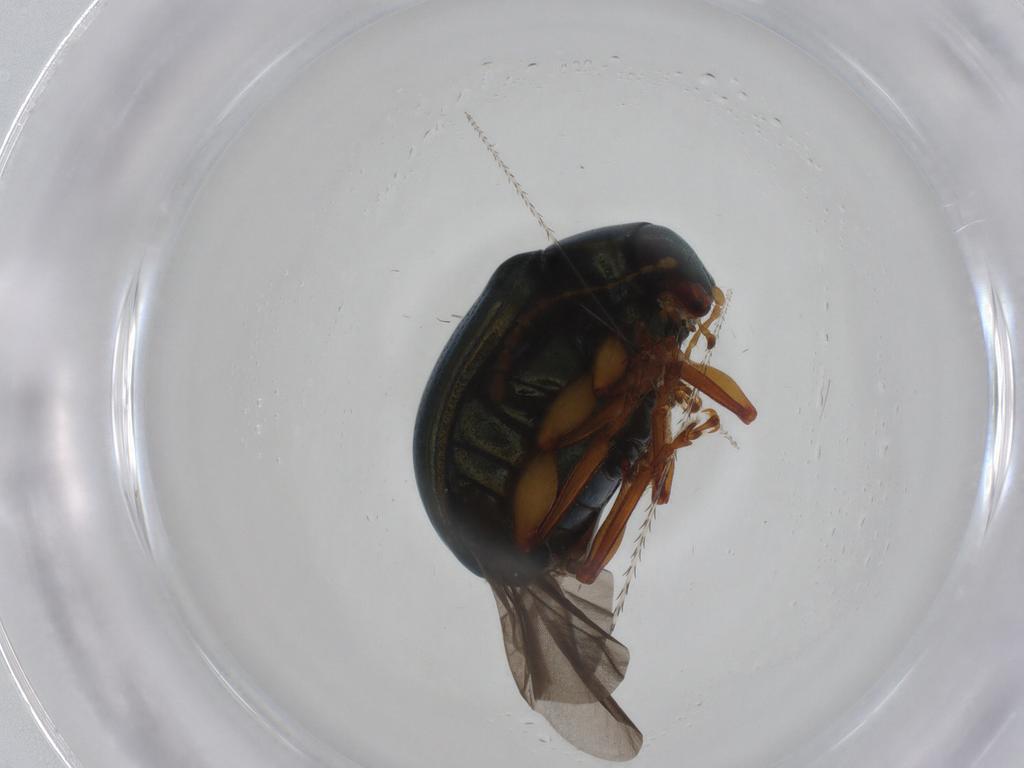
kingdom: Animalia
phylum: Arthropoda
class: Insecta
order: Coleoptera
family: Chrysomelidae
